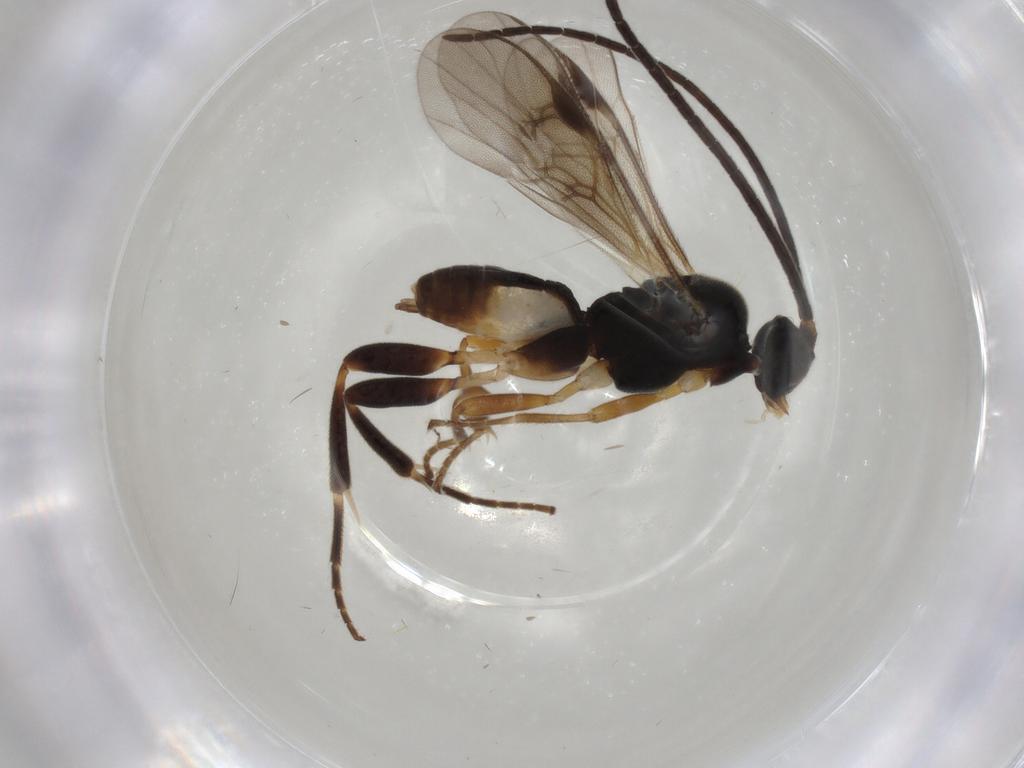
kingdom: Animalia
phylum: Arthropoda
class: Insecta
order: Hymenoptera
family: Braconidae
